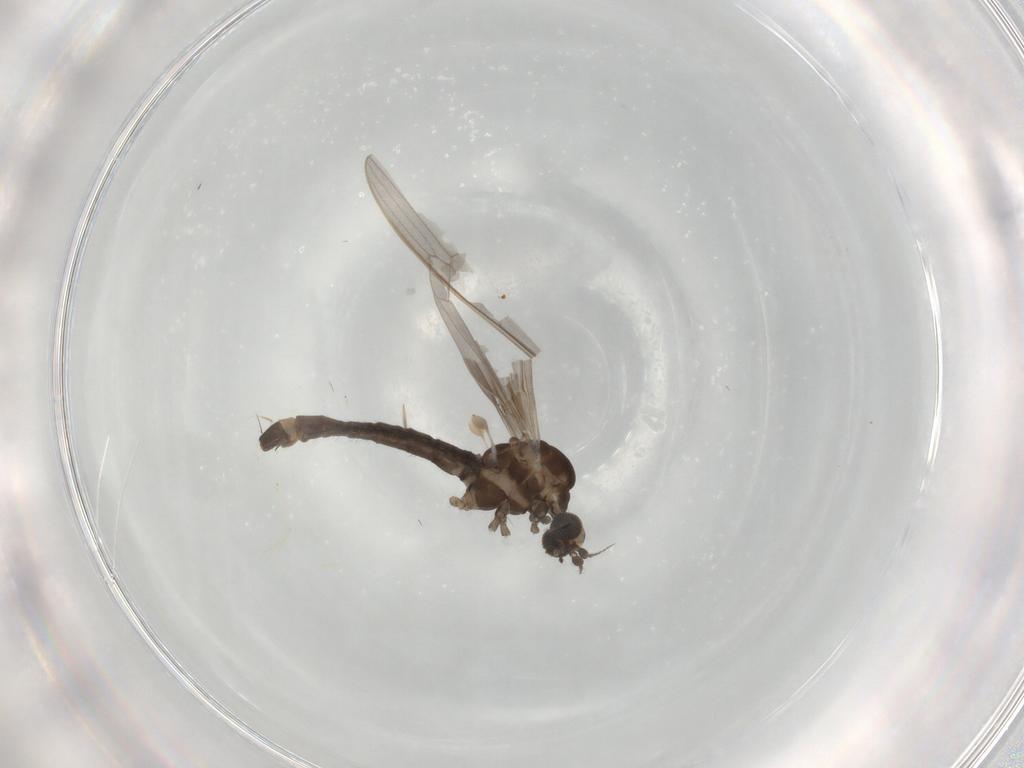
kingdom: Animalia
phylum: Arthropoda
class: Insecta
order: Diptera
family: Limoniidae
